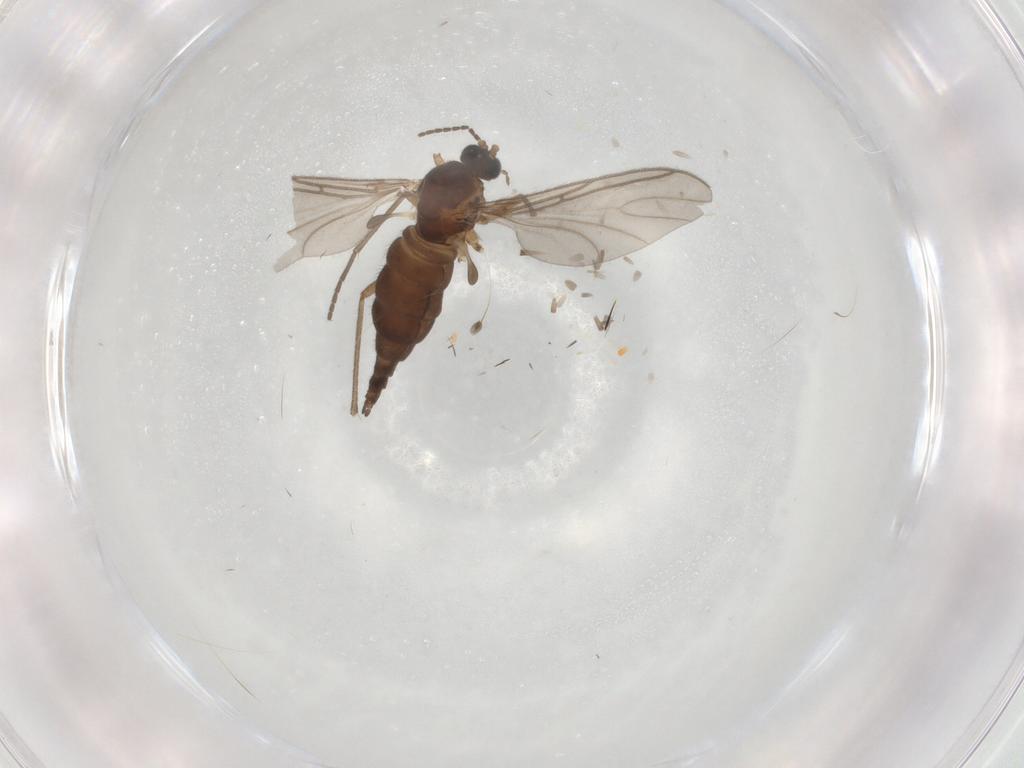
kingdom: Animalia
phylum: Arthropoda
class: Insecta
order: Diptera
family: Sciaridae
